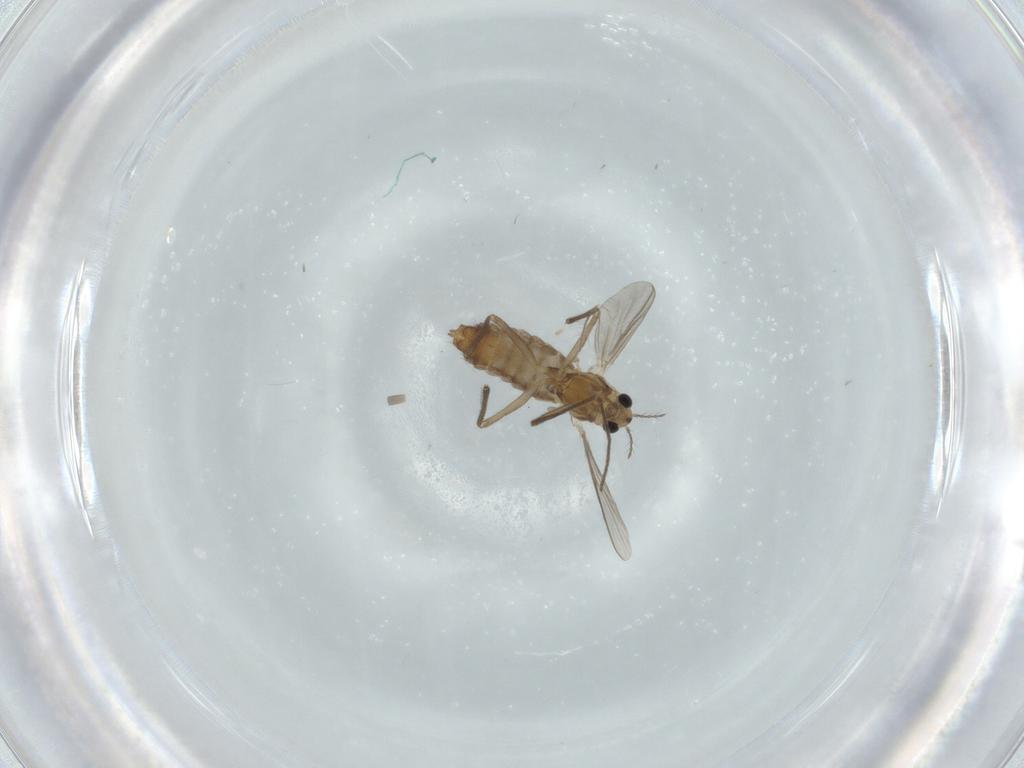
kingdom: Animalia
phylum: Arthropoda
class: Insecta
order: Diptera
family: Chironomidae
